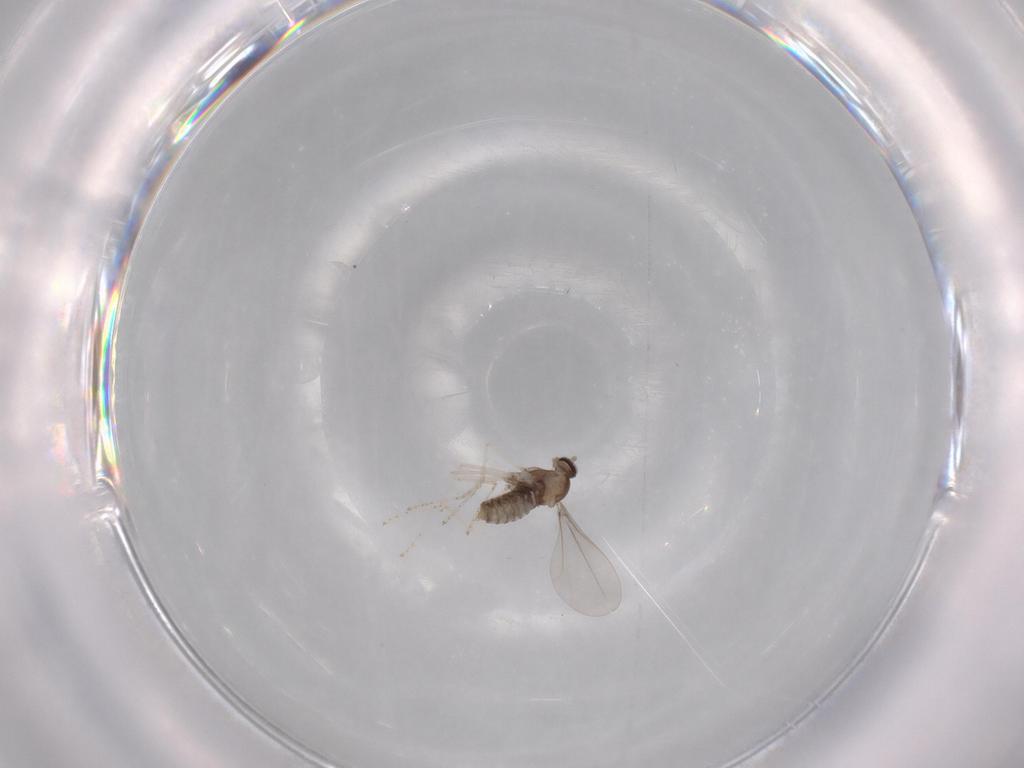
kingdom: Animalia
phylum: Arthropoda
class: Insecta
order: Diptera
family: Cecidomyiidae
